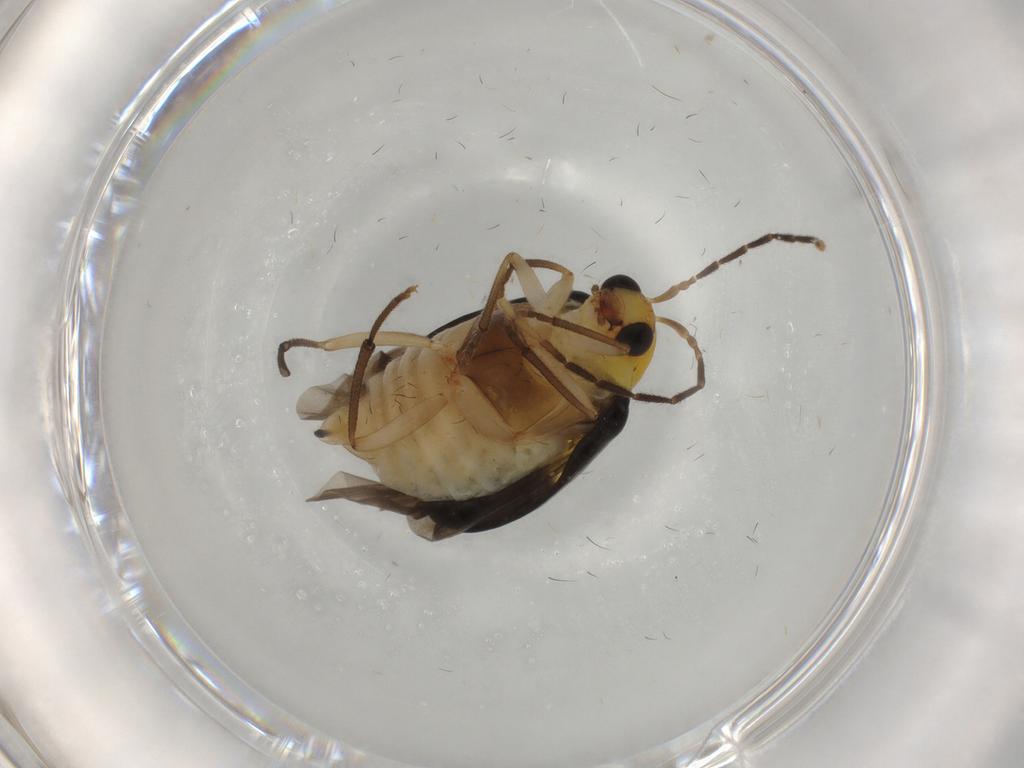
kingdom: Animalia
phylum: Arthropoda
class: Insecta
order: Coleoptera
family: Chrysomelidae
